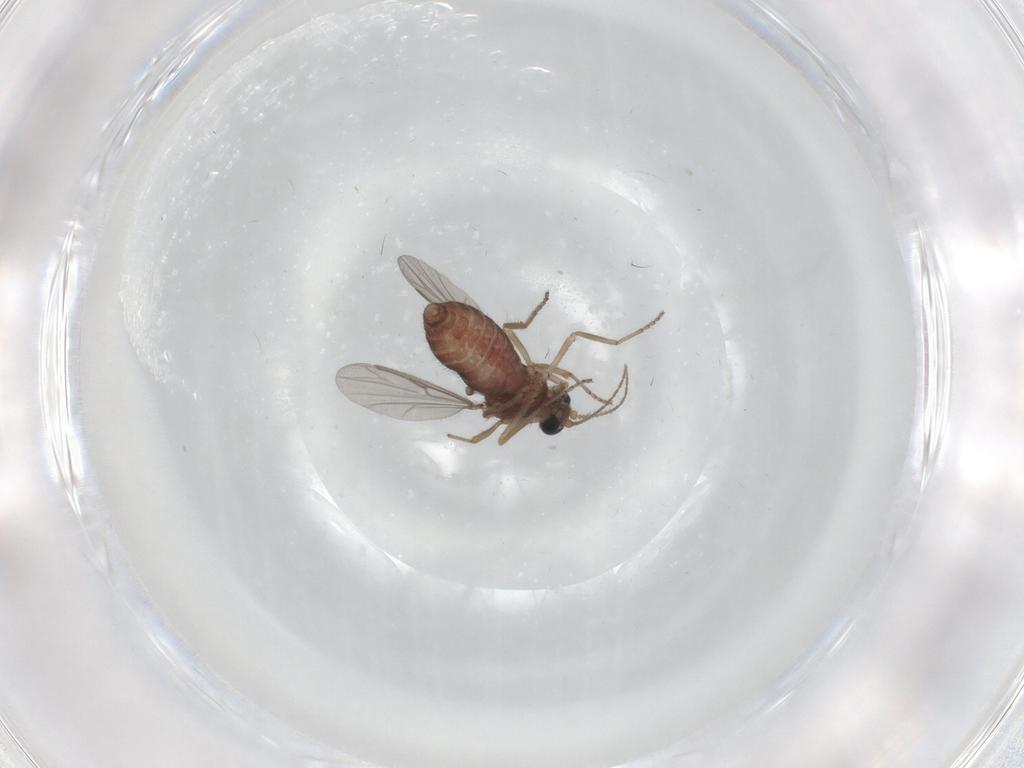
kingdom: Animalia
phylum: Arthropoda
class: Insecta
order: Diptera
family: Ceratopogonidae
